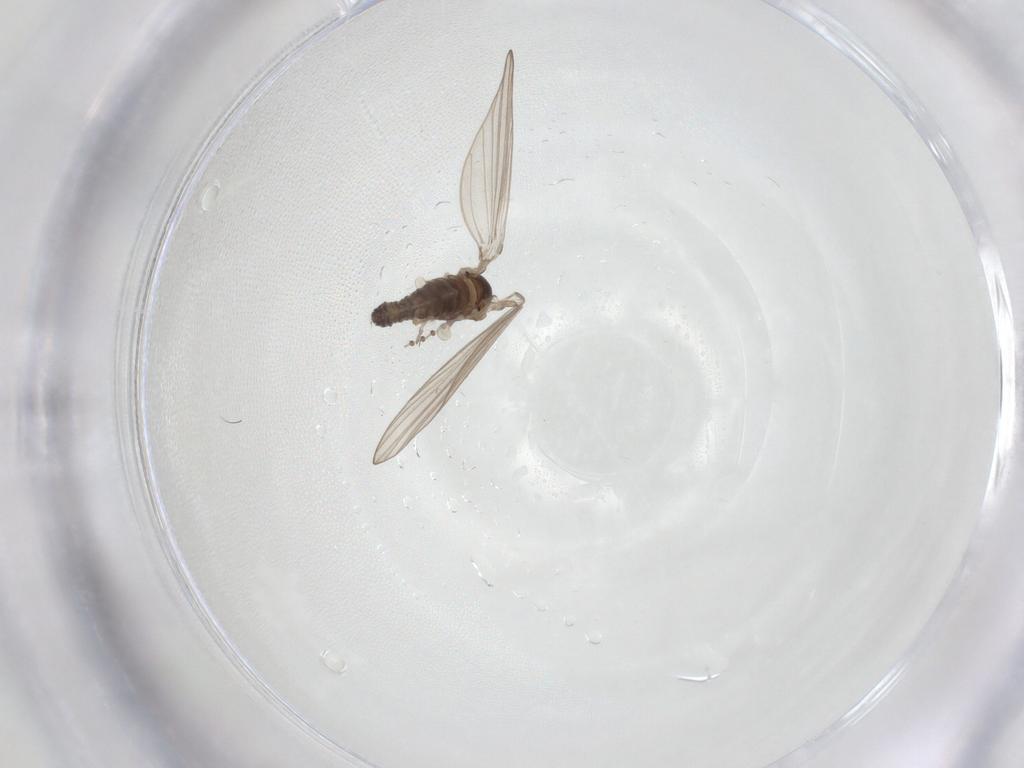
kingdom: Animalia
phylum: Arthropoda
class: Insecta
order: Diptera
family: Psychodidae
